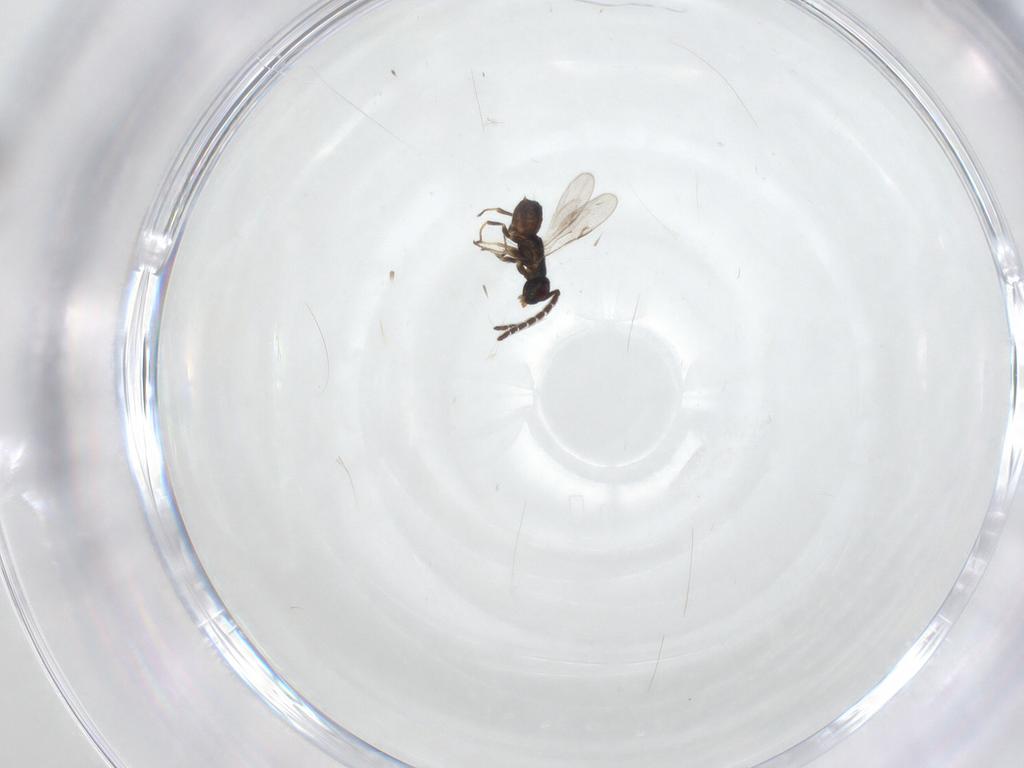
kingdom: Animalia
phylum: Arthropoda
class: Insecta
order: Hymenoptera
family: Encyrtidae
